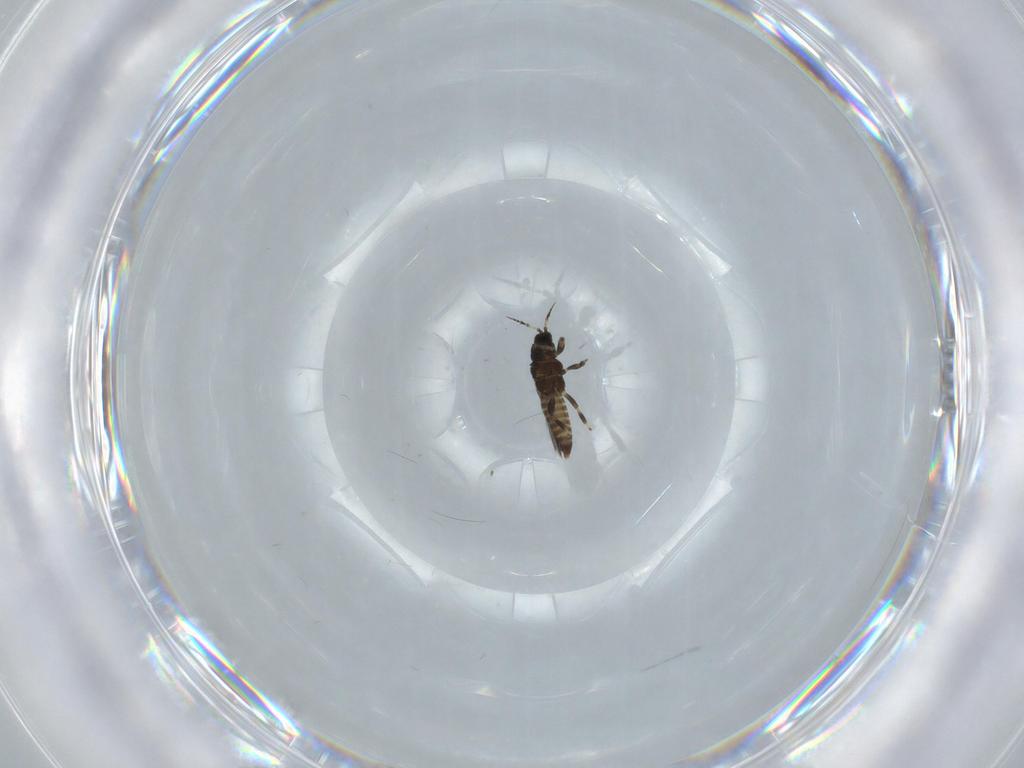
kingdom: Animalia
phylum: Arthropoda
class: Insecta
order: Thysanoptera
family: Heterothripidae
